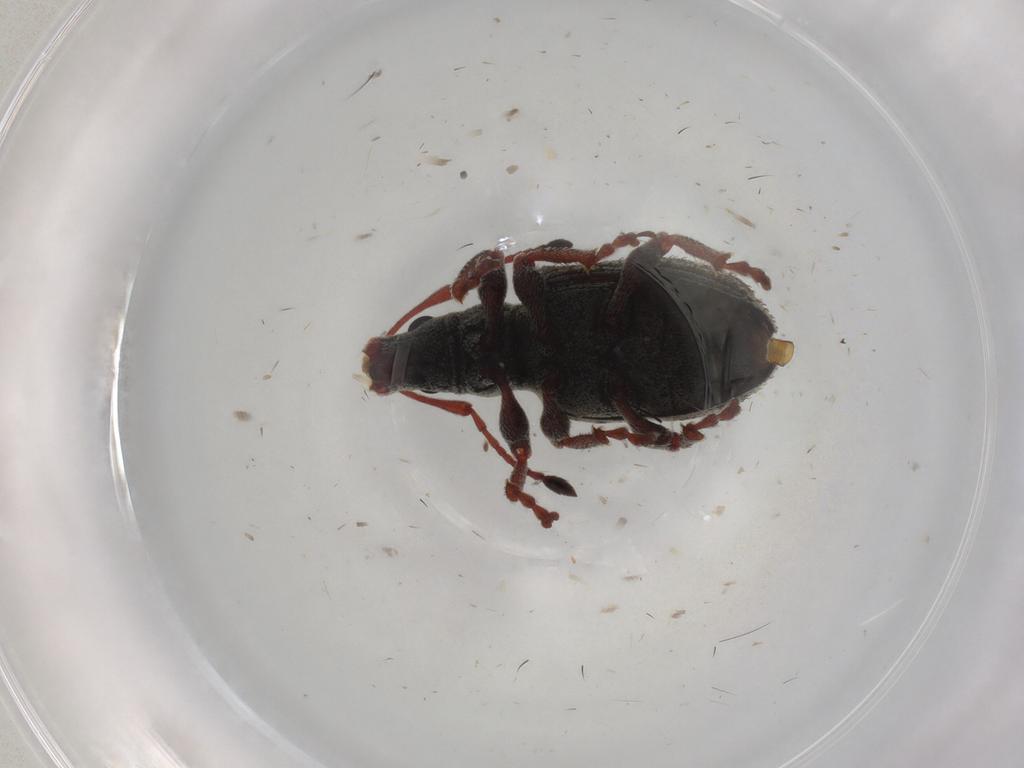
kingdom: Animalia
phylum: Arthropoda
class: Insecta
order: Coleoptera
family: Curculionidae
